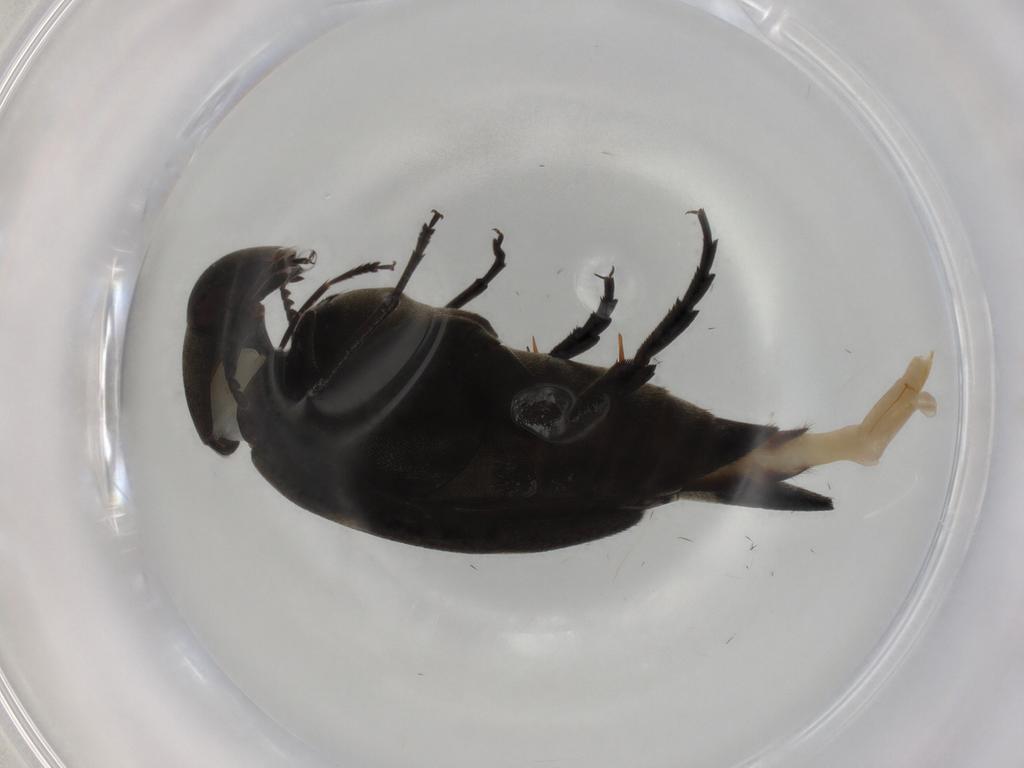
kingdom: Animalia
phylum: Arthropoda
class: Insecta
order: Coleoptera
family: Mordellidae
